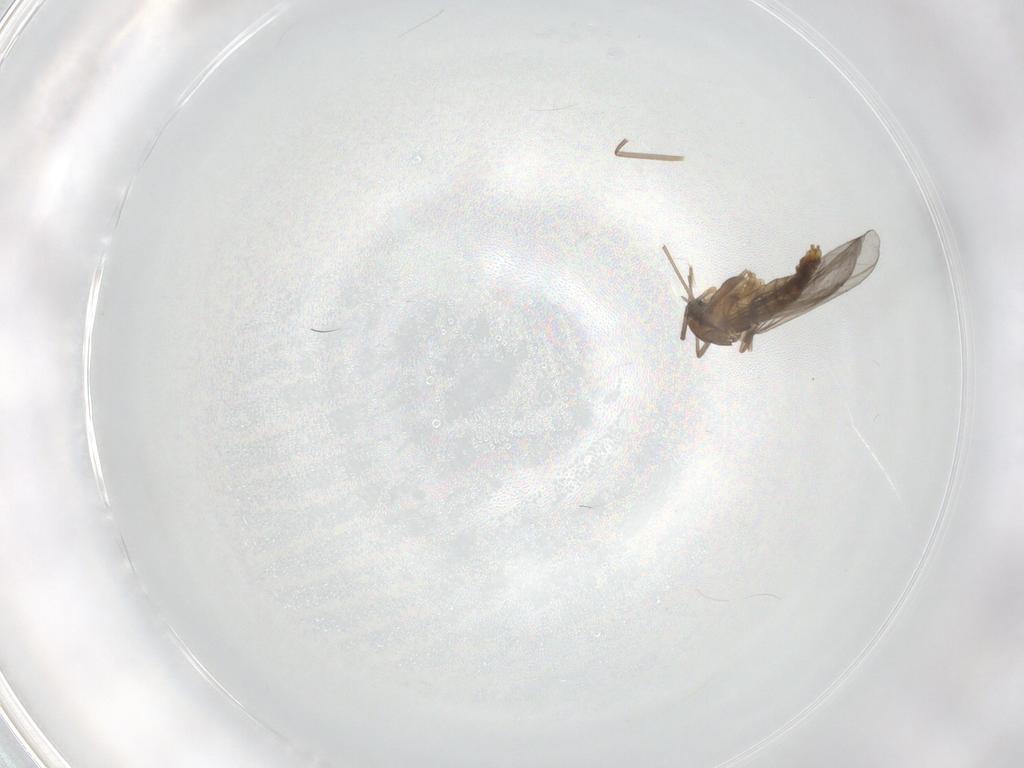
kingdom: Animalia
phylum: Arthropoda
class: Insecta
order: Diptera
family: Chironomidae
